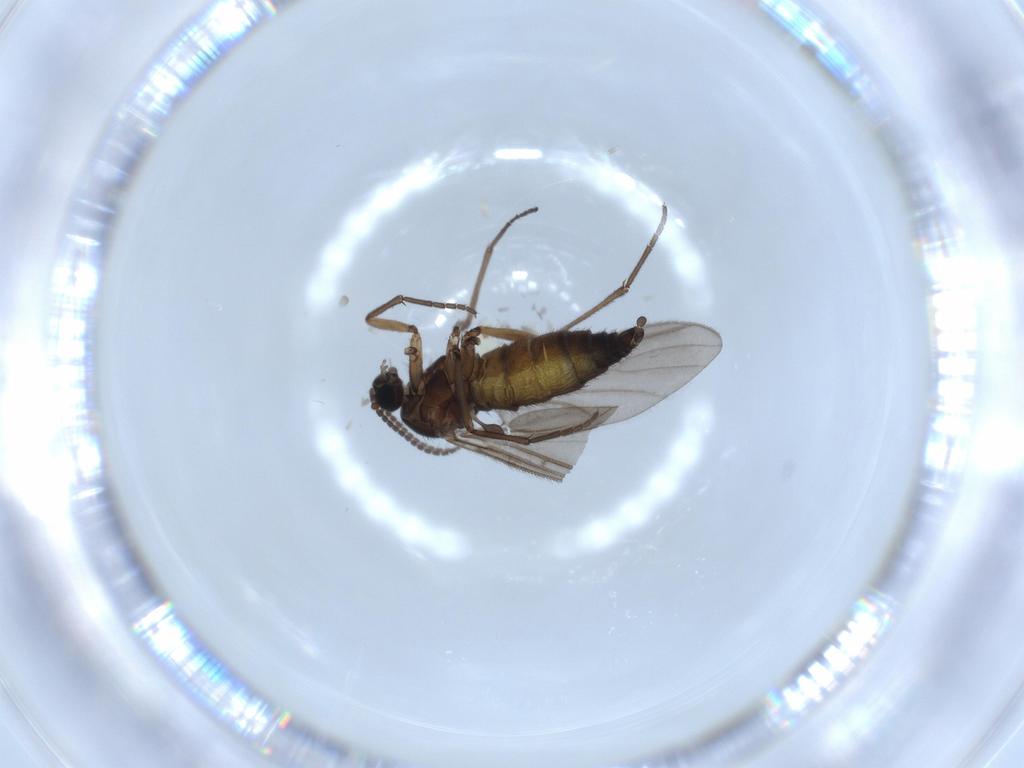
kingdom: Animalia
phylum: Arthropoda
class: Insecta
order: Diptera
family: Sciaridae
